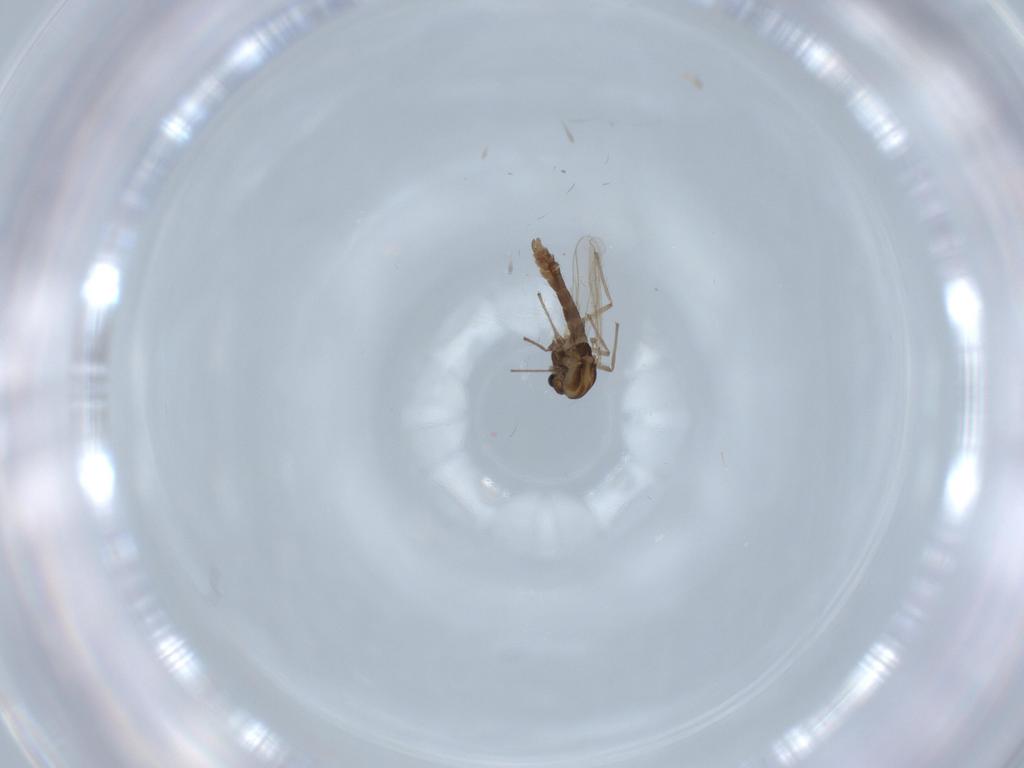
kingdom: Animalia
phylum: Arthropoda
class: Insecta
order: Diptera
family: Chironomidae
